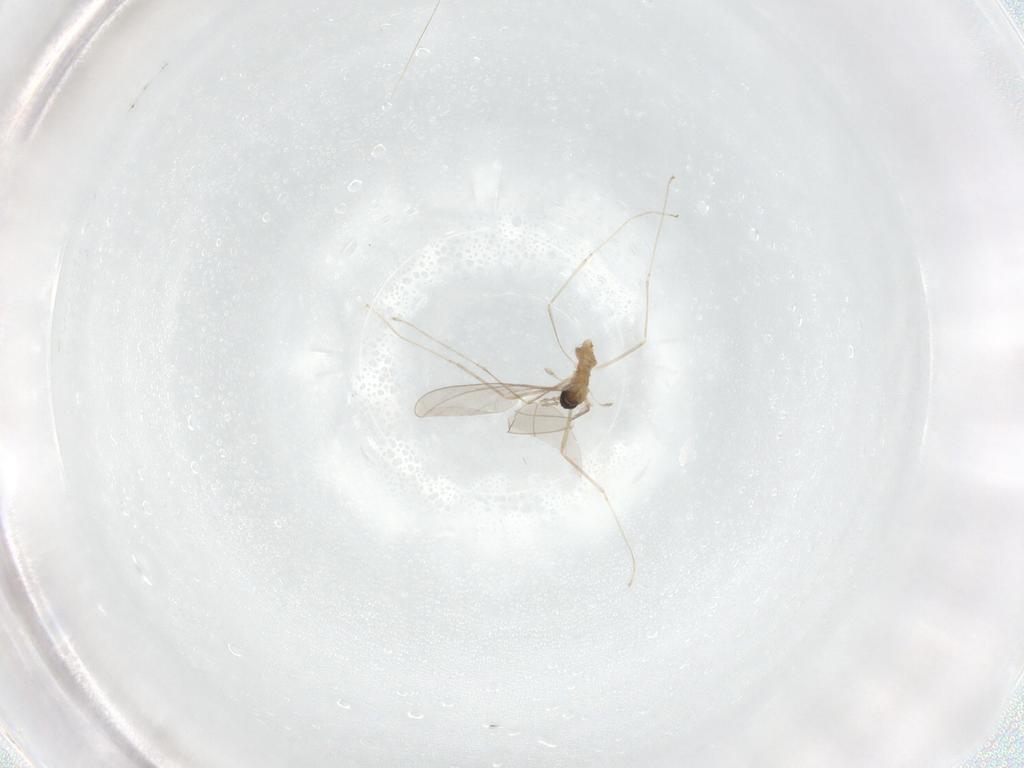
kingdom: Animalia
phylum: Arthropoda
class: Insecta
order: Diptera
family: Cecidomyiidae
